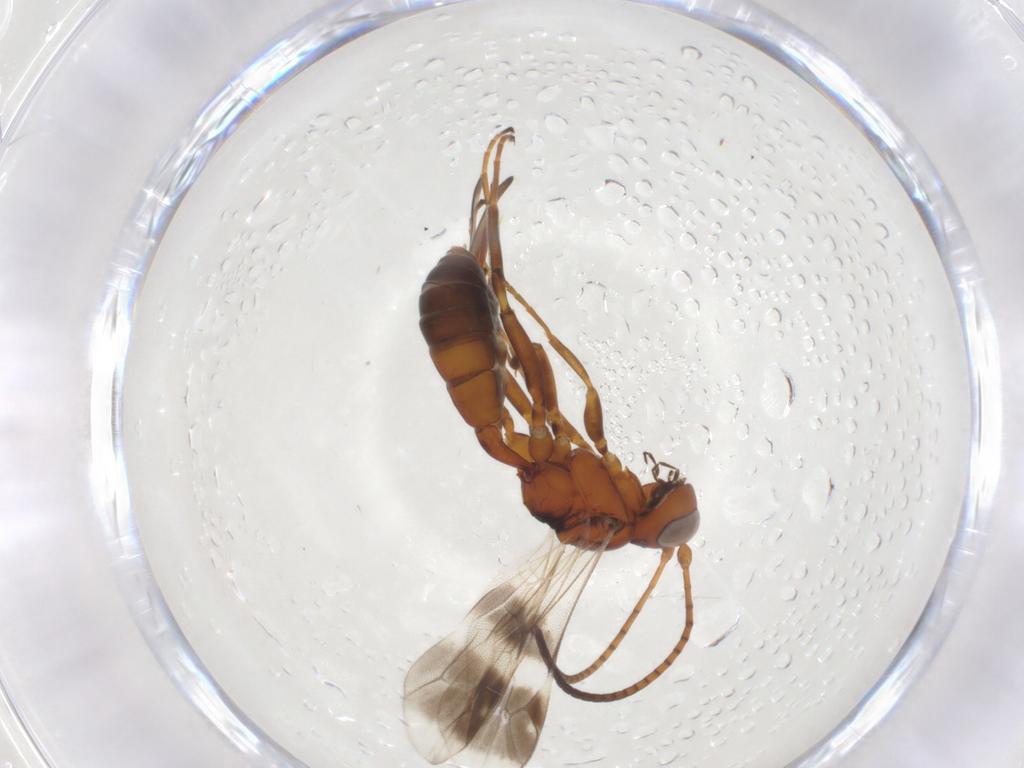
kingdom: Animalia
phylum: Arthropoda
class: Insecta
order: Hymenoptera
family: Ichneumonidae
